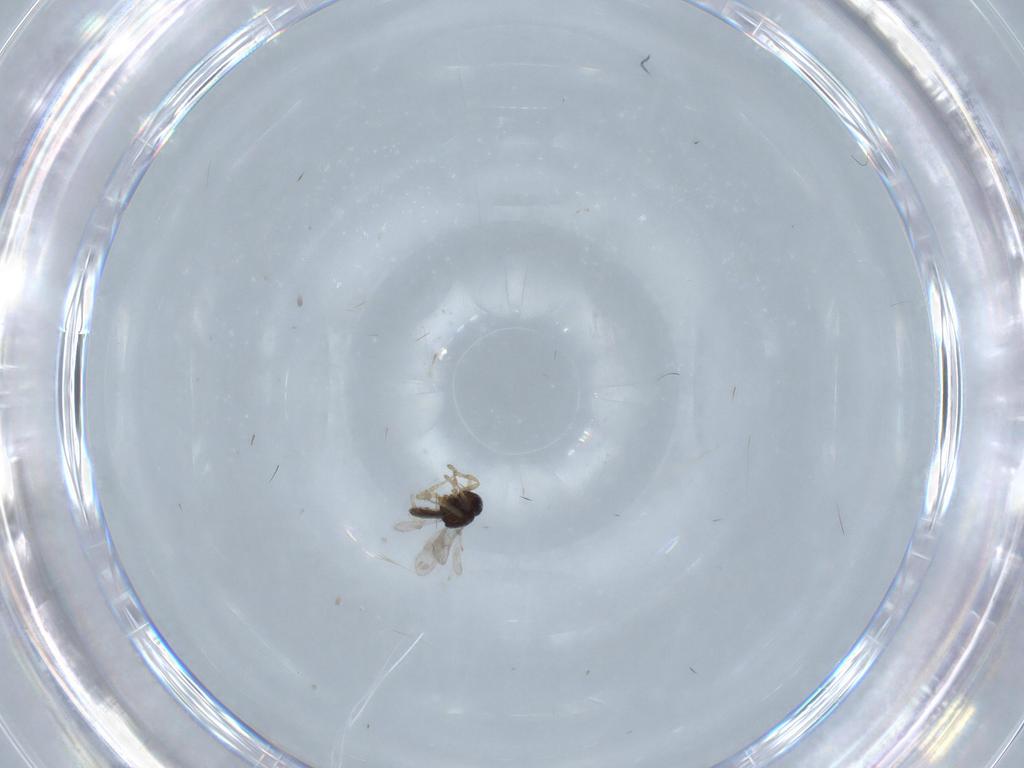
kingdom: Animalia
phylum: Arthropoda
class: Insecta
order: Hymenoptera
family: Scelionidae
